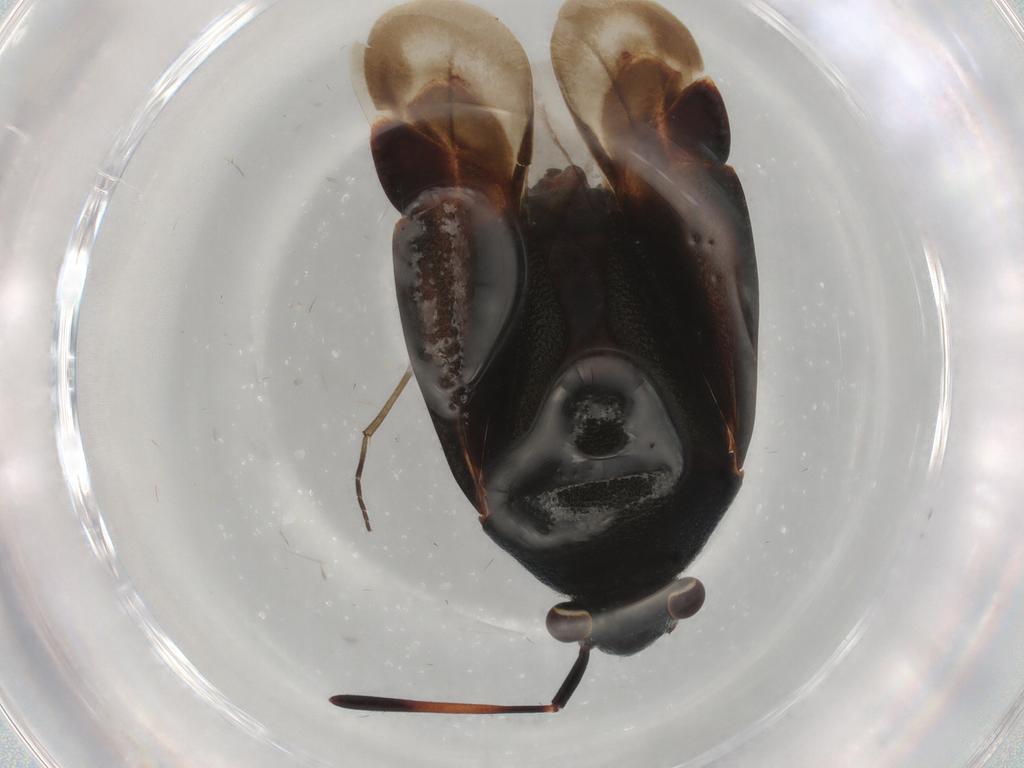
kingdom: Animalia
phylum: Arthropoda
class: Insecta
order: Hemiptera
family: Miridae
